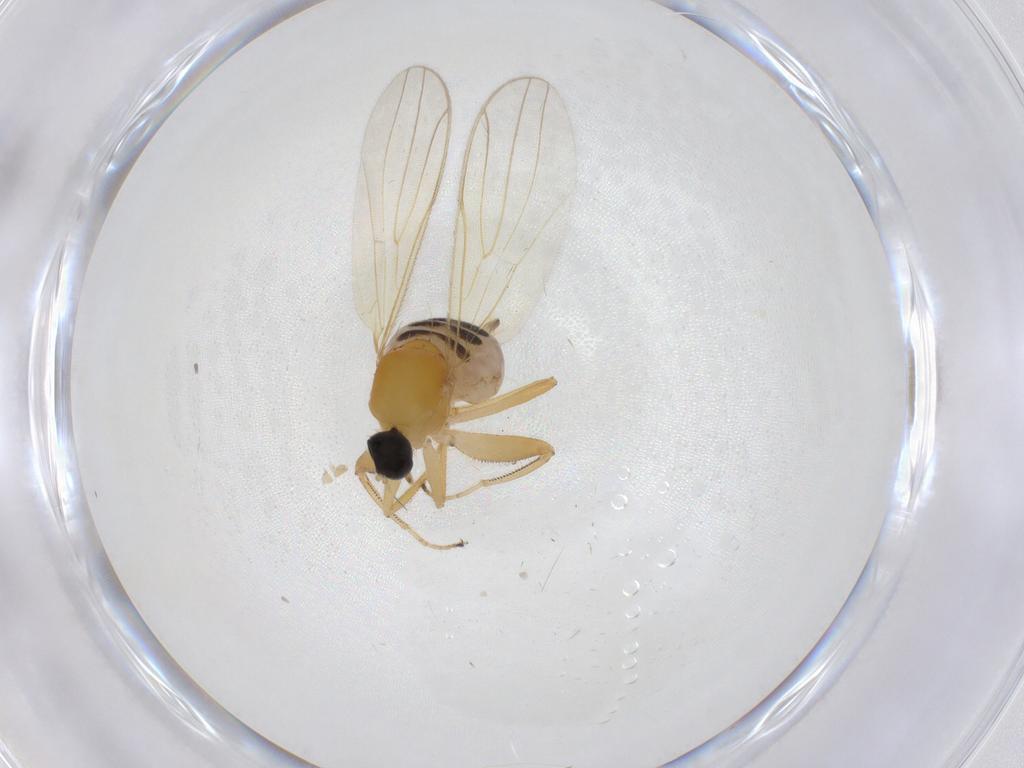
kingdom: Animalia
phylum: Arthropoda
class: Insecta
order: Diptera
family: Hybotidae
